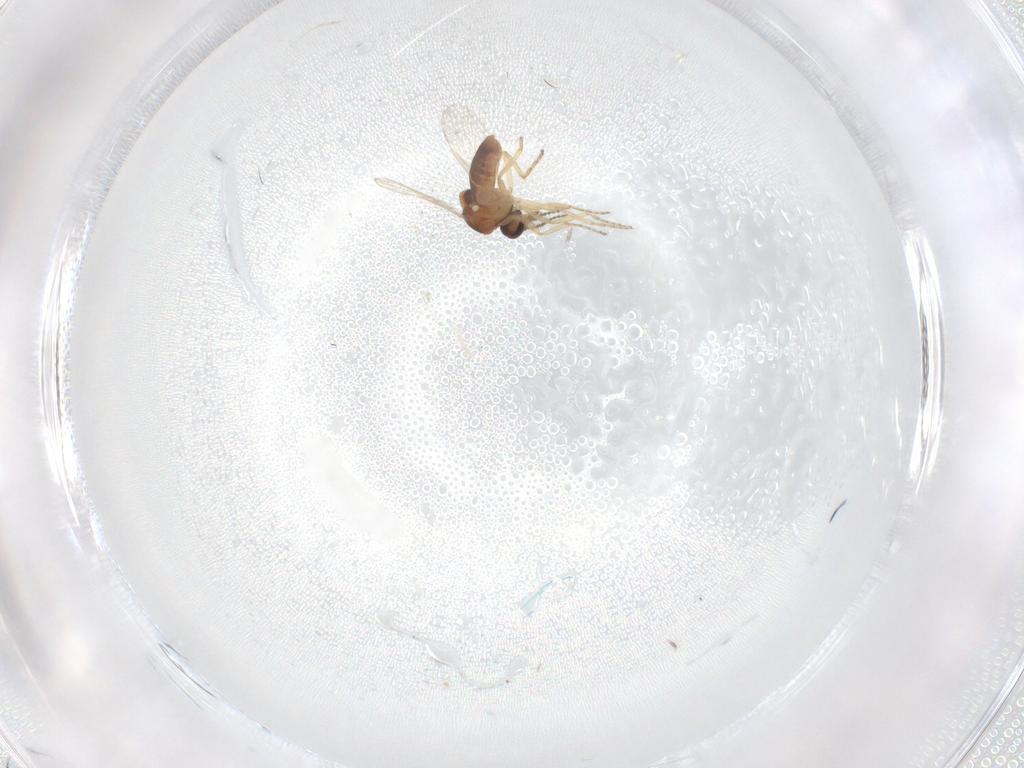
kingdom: Animalia
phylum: Arthropoda
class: Insecta
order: Diptera
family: Ceratopogonidae
